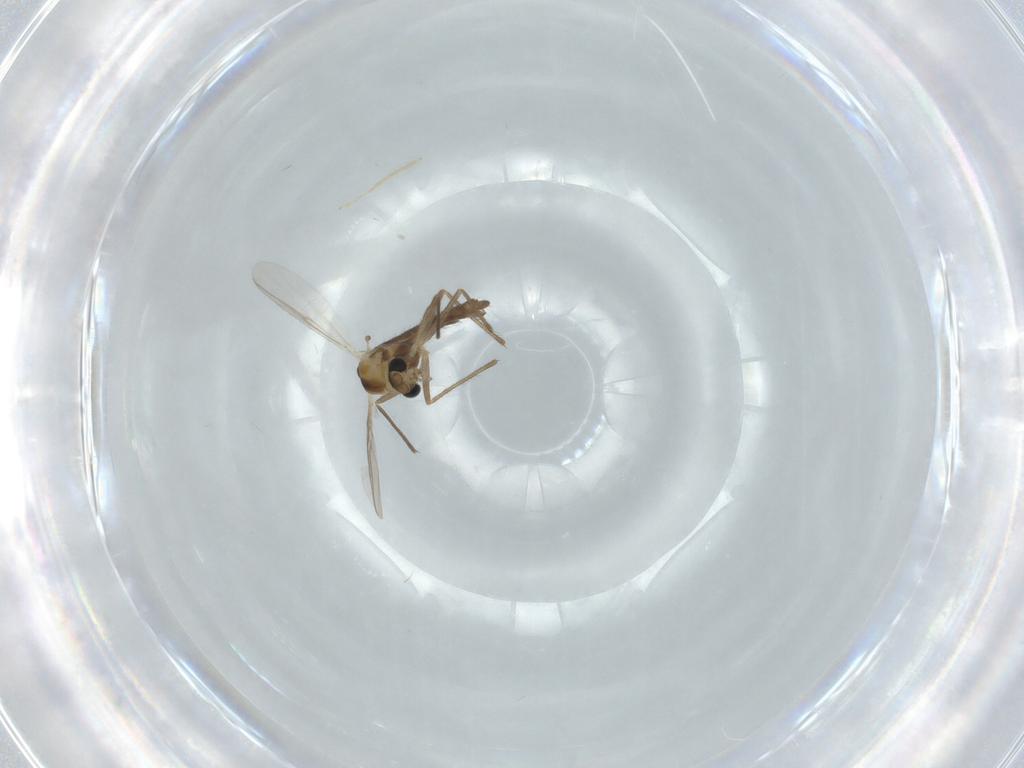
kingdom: Animalia
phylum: Arthropoda
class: Insecta
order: Diptera
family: Chironomidae
